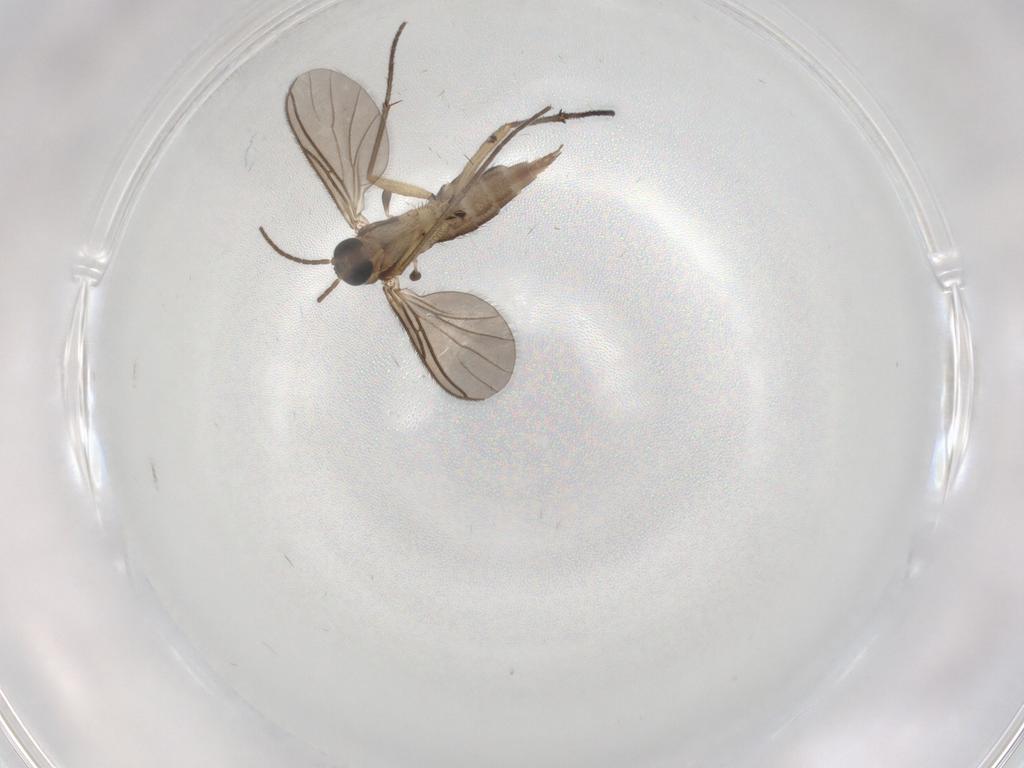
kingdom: Animalia
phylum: Arthropoda
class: Insecta
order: Diptera
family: Sciaridae
